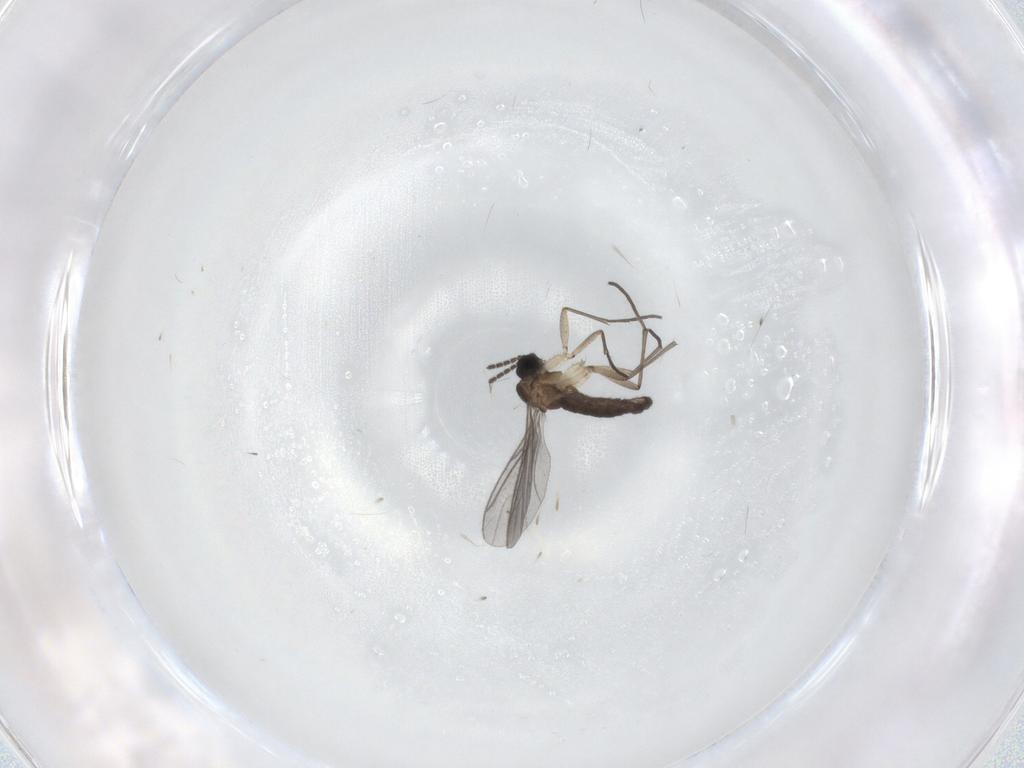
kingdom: Animalia
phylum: Arthropoda
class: Insecta
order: Diptera
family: Sciaridae
